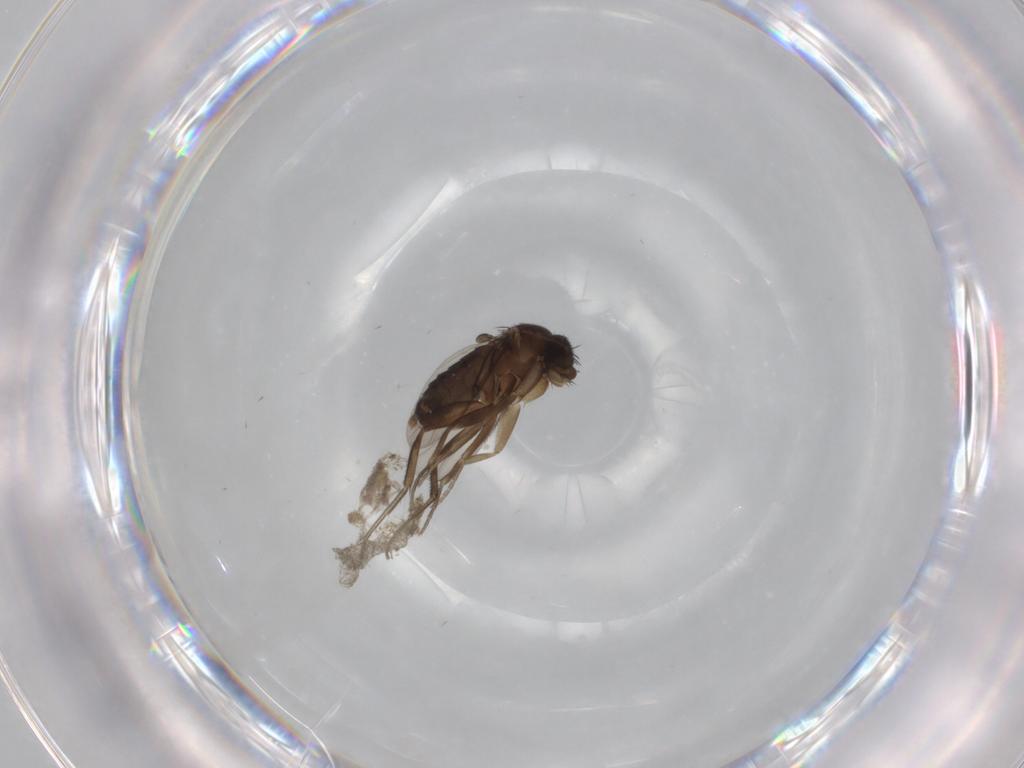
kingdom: Animalia
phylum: Arthropoda
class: Insecta
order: Diptera
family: Phoridae
